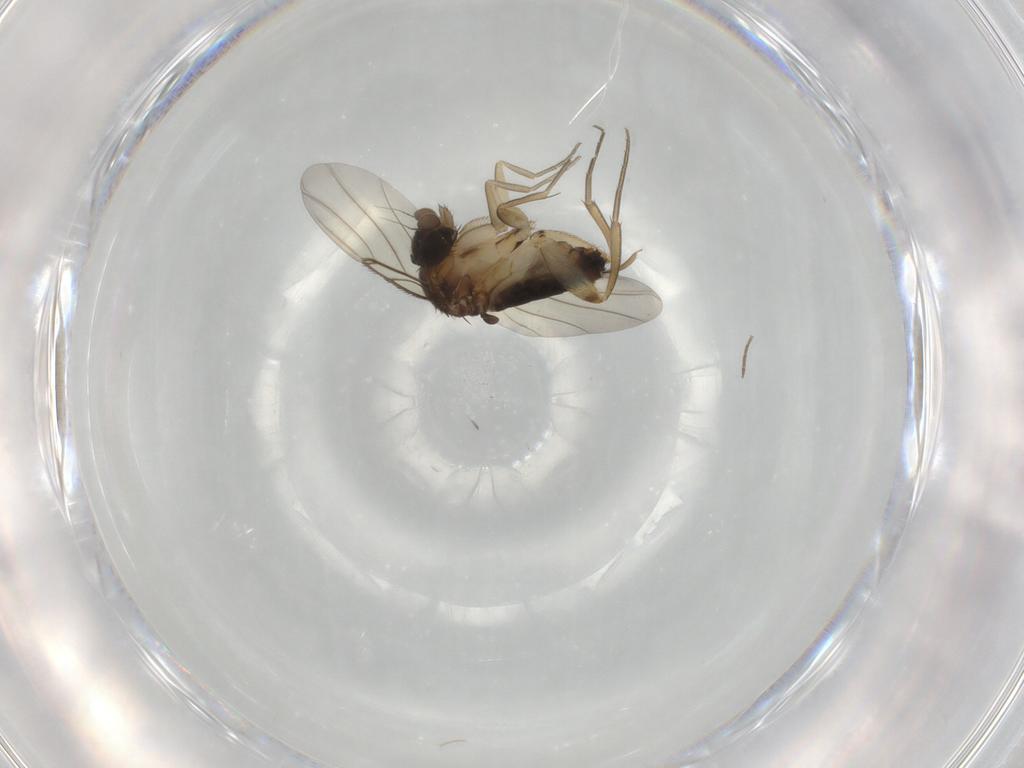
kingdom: Animalia
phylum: Arthropoda
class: Insecta
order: Diptera
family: Phoridae
